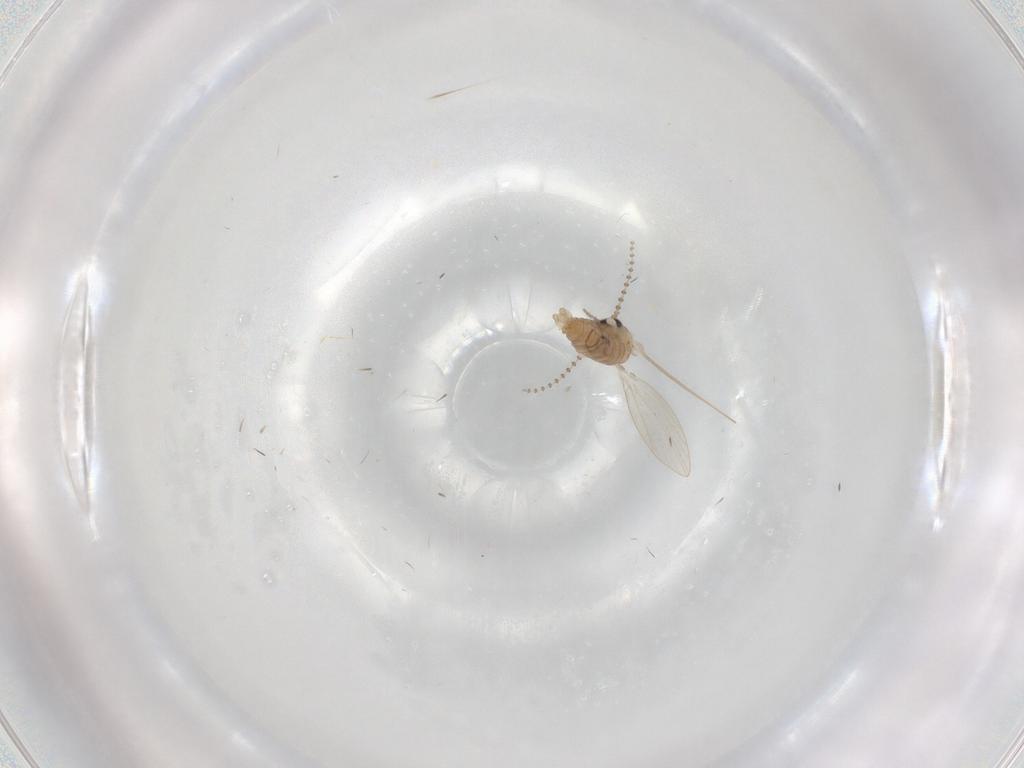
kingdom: Animalia
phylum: Arthropoda
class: Insecta
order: Diptera
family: Psychodidae
